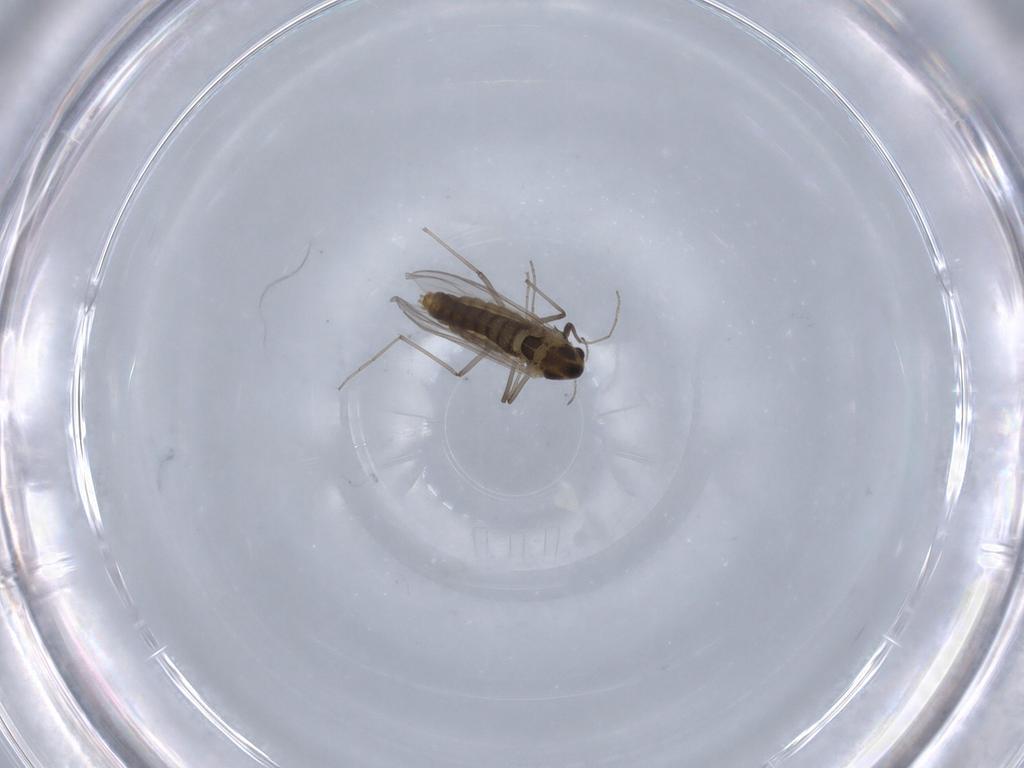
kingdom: Animalia
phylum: Arthropoda
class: Insecta
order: Diptera
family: Chironomidae
